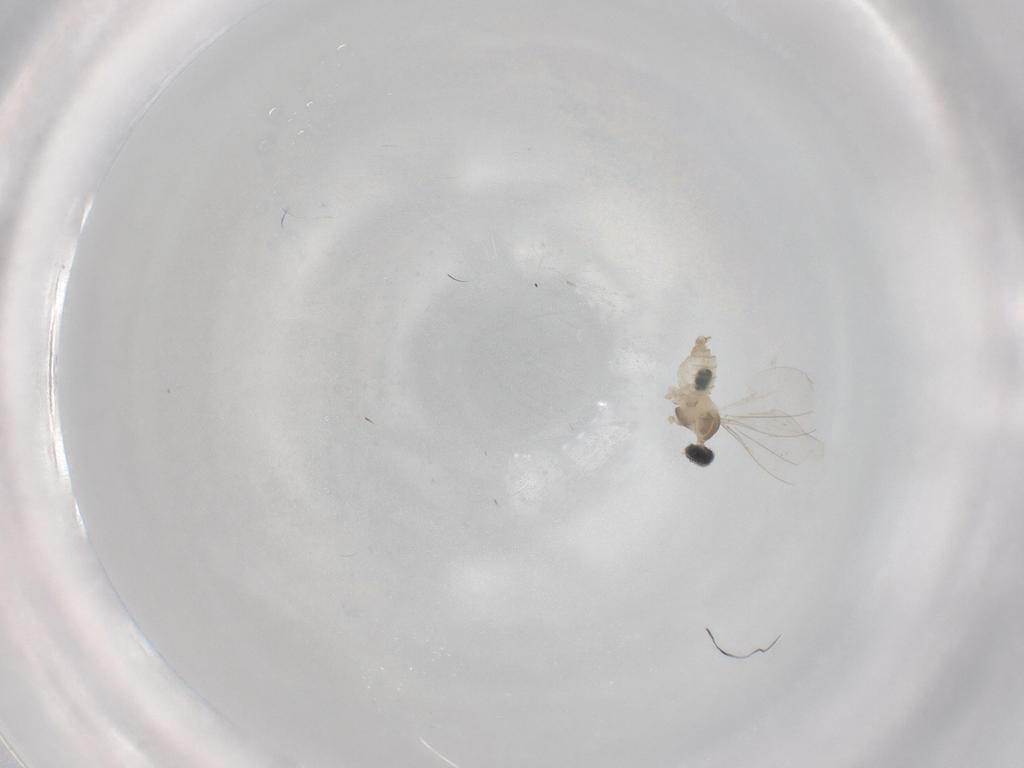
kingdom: Animalia
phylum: Arthropoda
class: Insecta
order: Diptera
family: Cecidomyiidae
